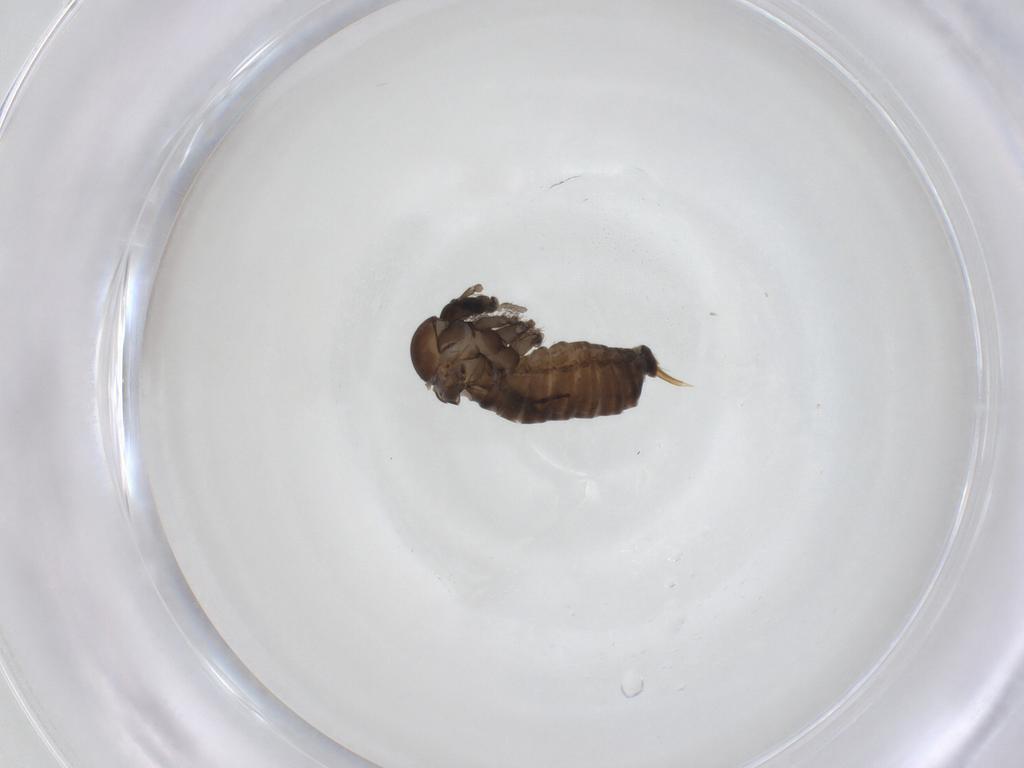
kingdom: Animalia
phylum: Arthropoda
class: Insecta
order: Diptera
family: Psychodidae
